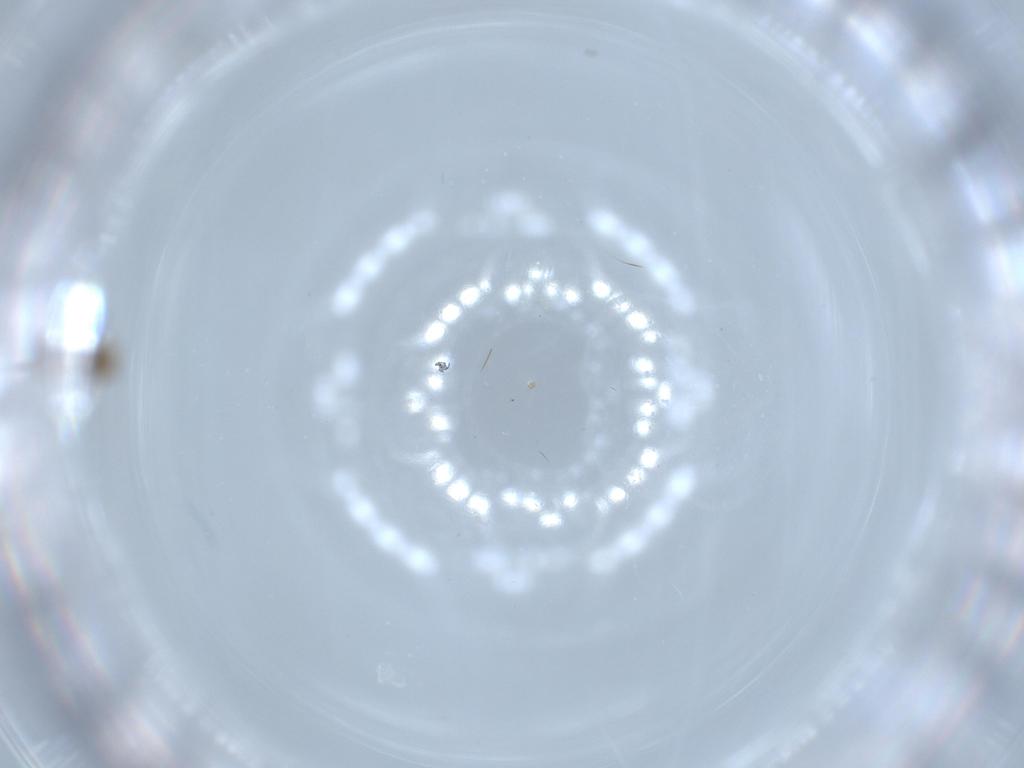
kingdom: Animalia
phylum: Arthropoda
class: Insecta
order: Diptera
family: Cecidomyiidae
